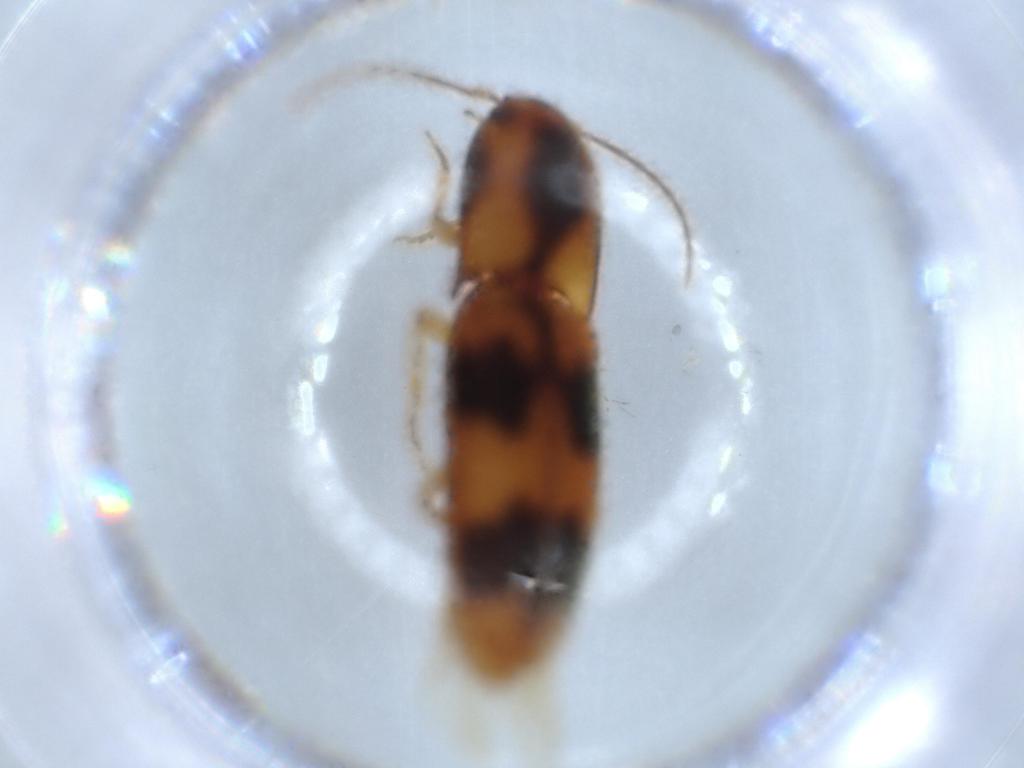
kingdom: Animalia
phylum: Arthropoda
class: Insecta
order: Coleoptera
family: Elateridae
